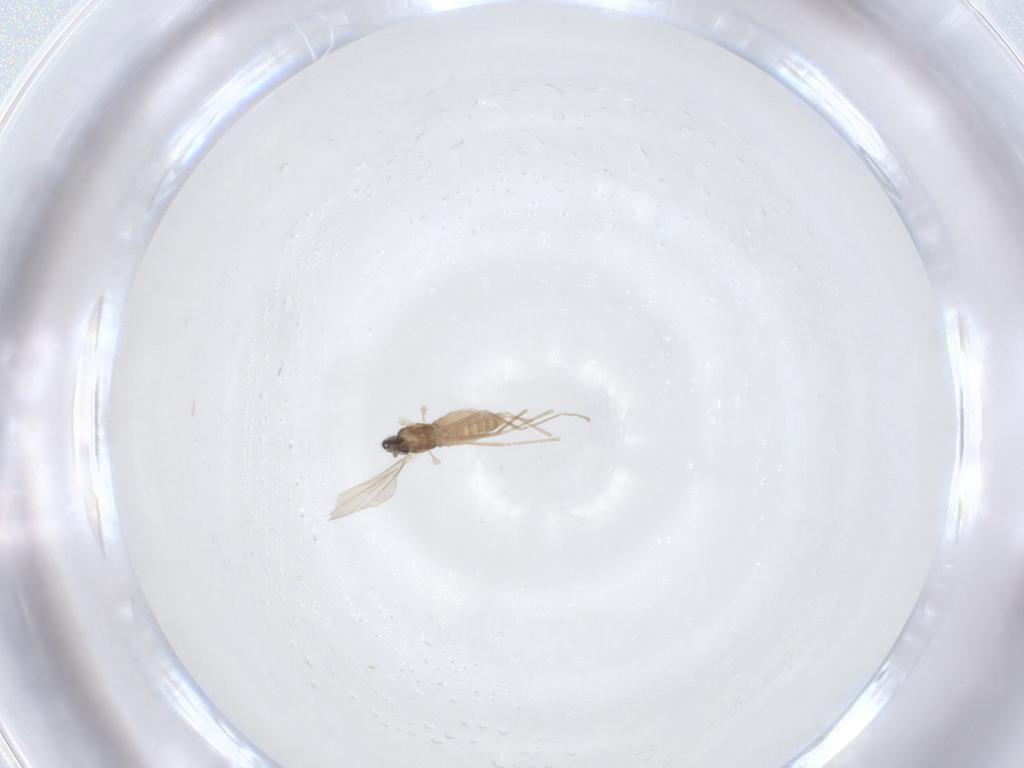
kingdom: Animalia
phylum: Arthropoda
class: Insecta
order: Diptera
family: Cecidomyiidae
